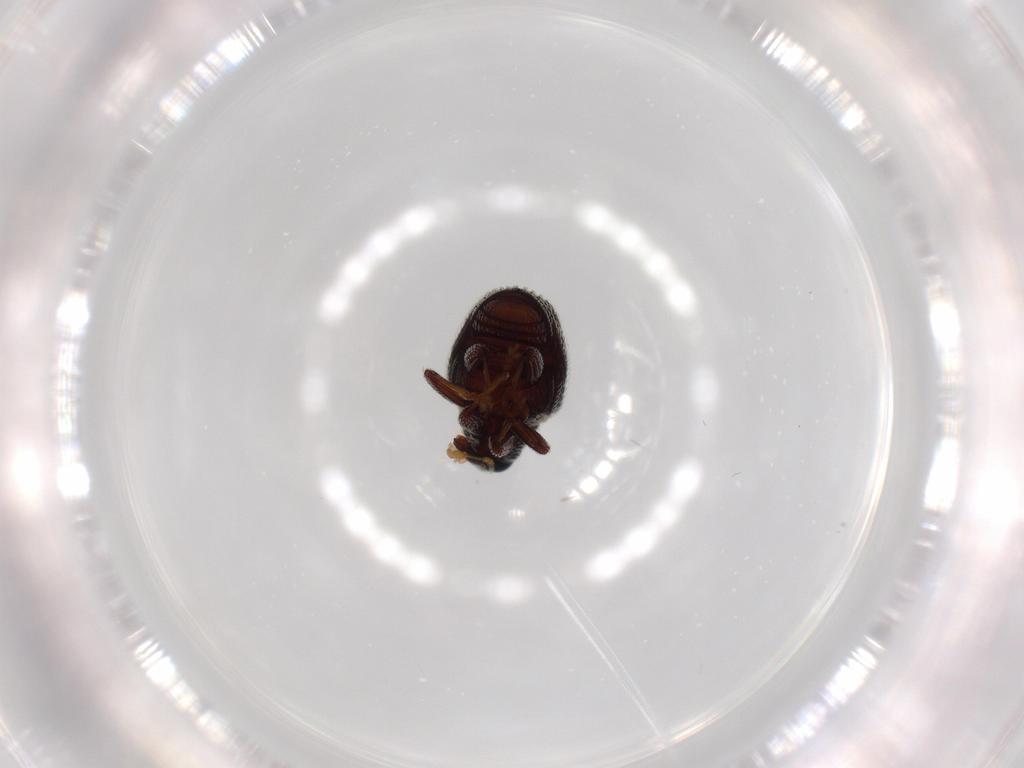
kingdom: Animalia
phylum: Arthropoda
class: Insecta
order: Coleoptera
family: Curculionidae
